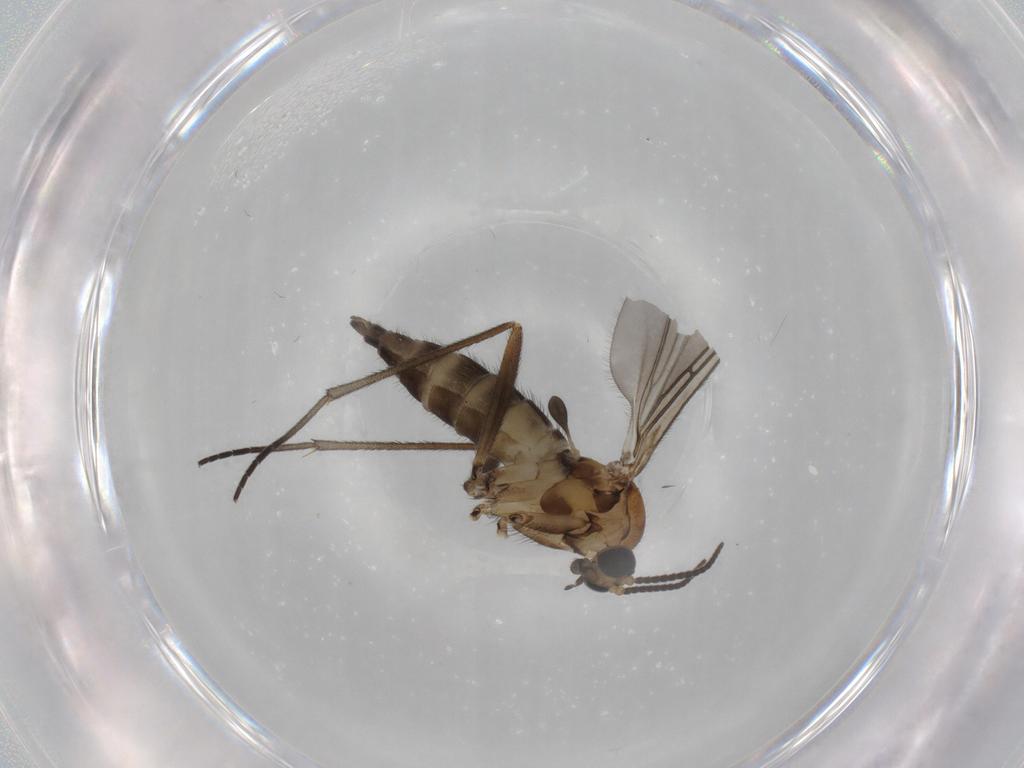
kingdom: Animalia
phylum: Arthropoda
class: Insecta
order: Diptera
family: Sciaridae
